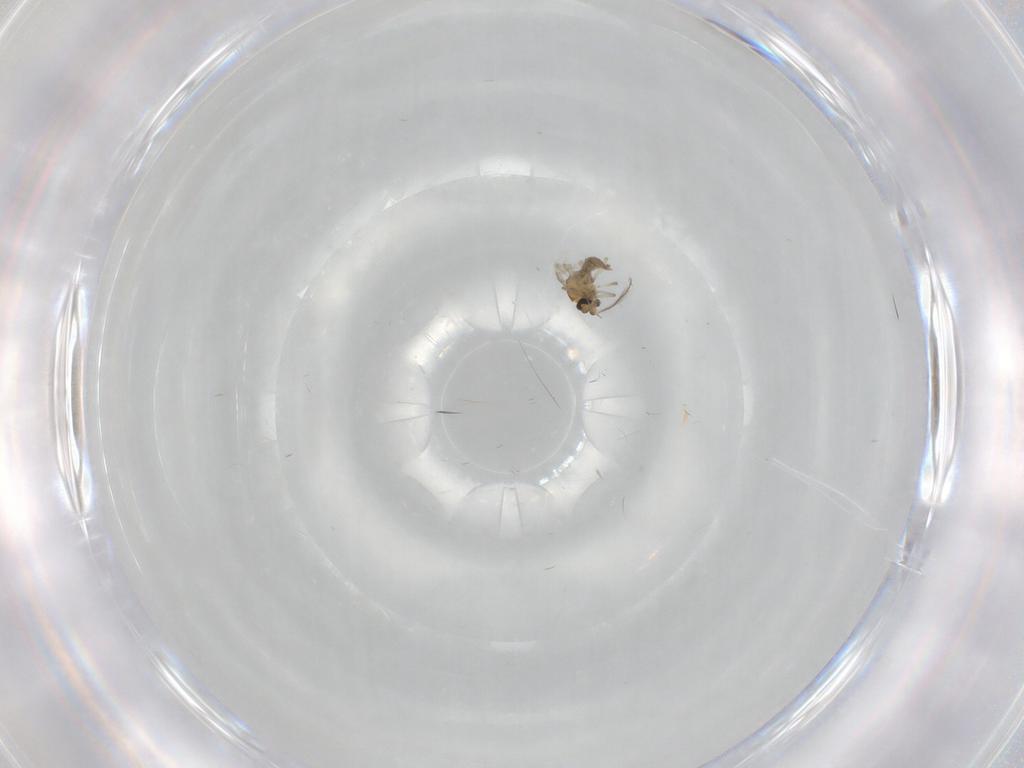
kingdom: Animalia
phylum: Arthropoda
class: Insecta
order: Diptera
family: Ceratopogonidae
